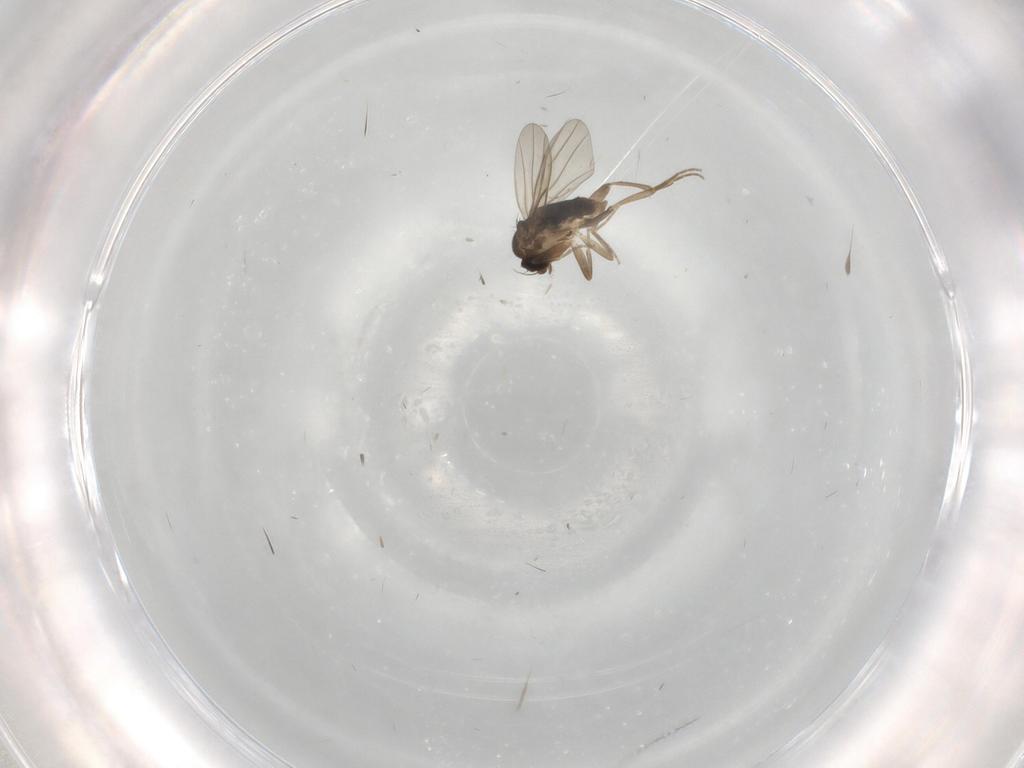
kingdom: Animalia
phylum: Arthropoda
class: Insecta
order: Diptera
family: Phoridae
